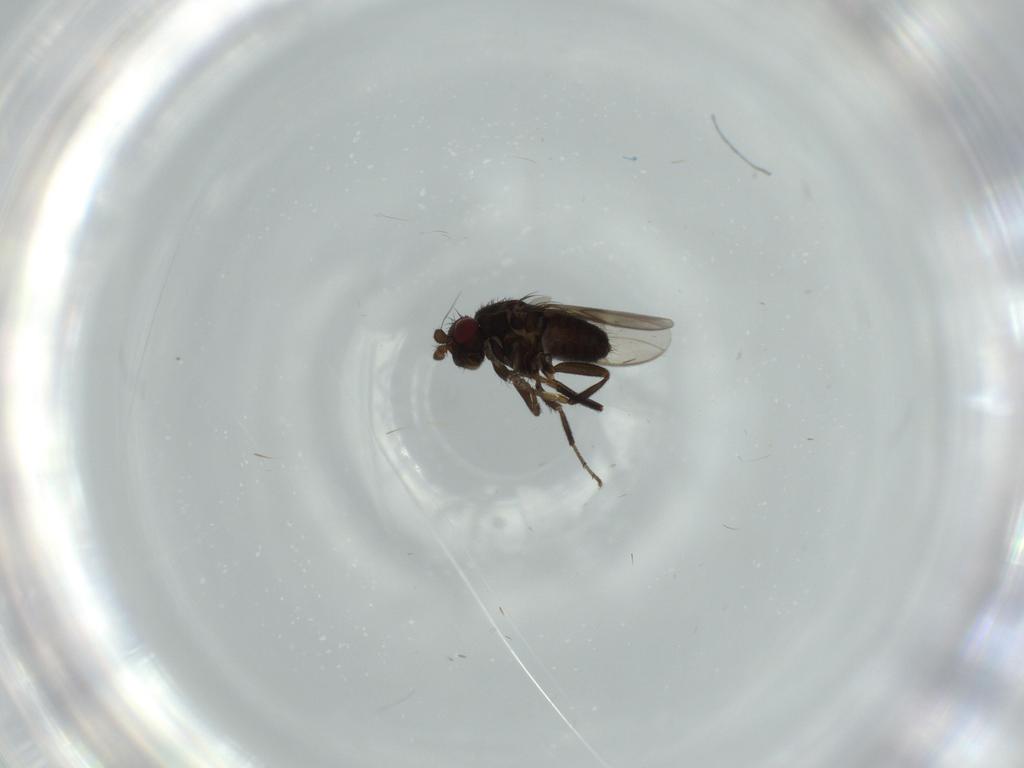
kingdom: Animalia
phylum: Arthropoda
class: Insecta
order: Diptera
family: Sphaeroceridae
